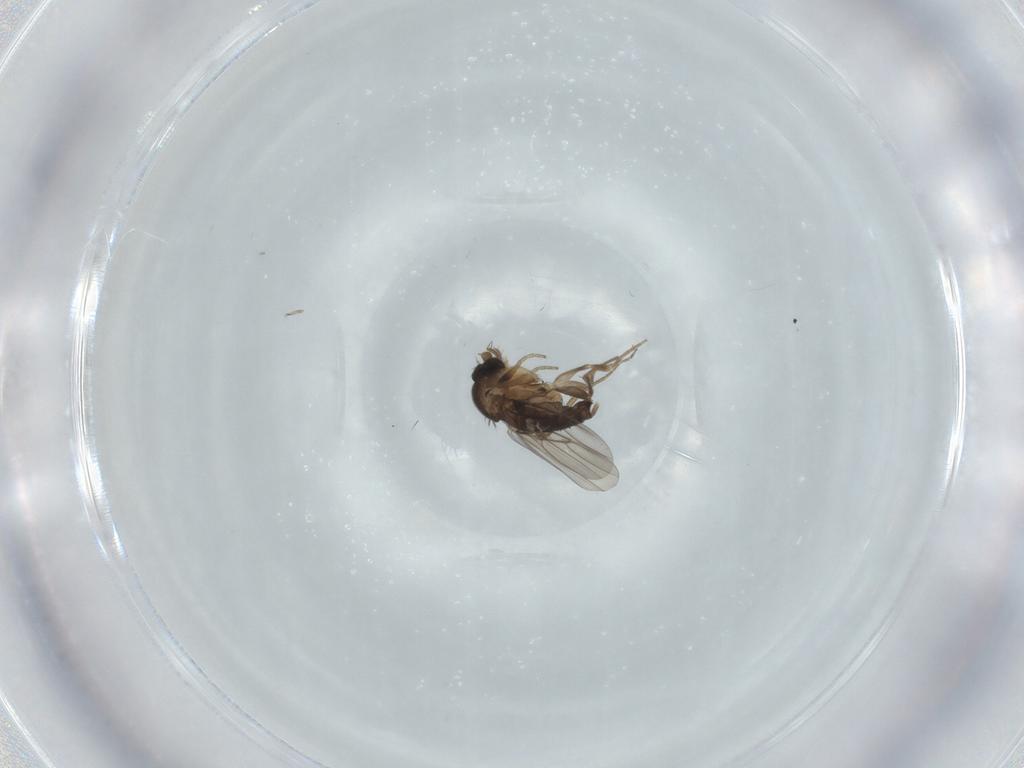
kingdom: Animalia
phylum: Arthropoda
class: Insecta
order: Diptera
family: Phoridae
